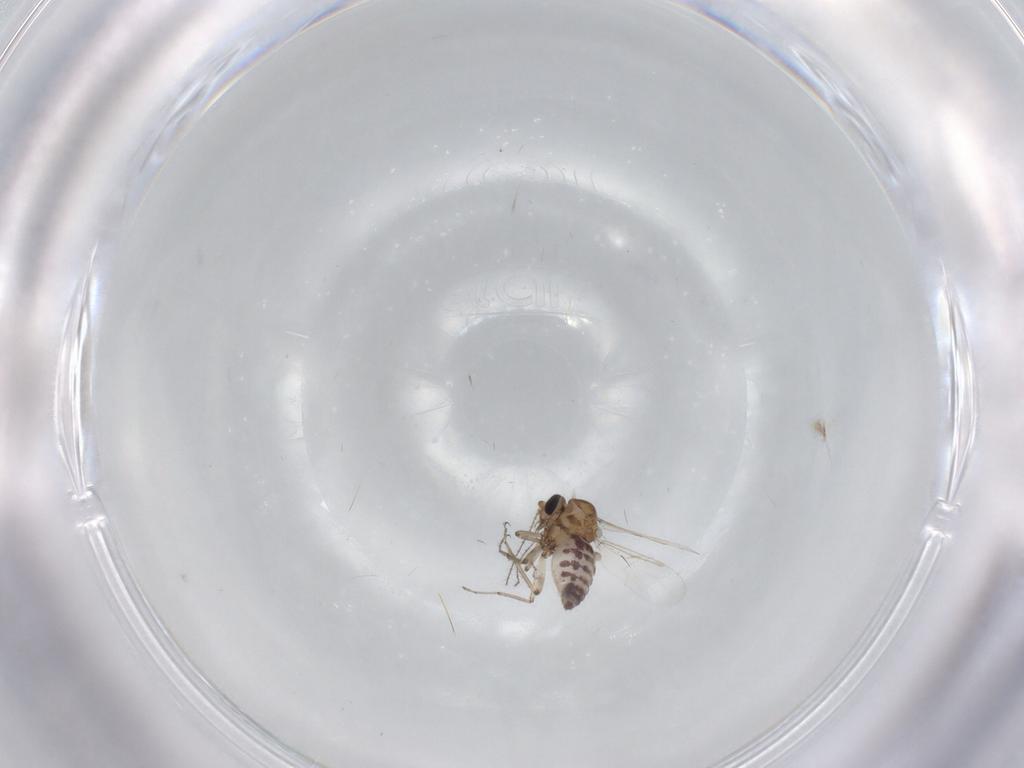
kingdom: Animalia
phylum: Arthropoda
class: Insecta
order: Diptera
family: Ceratopogonidae
